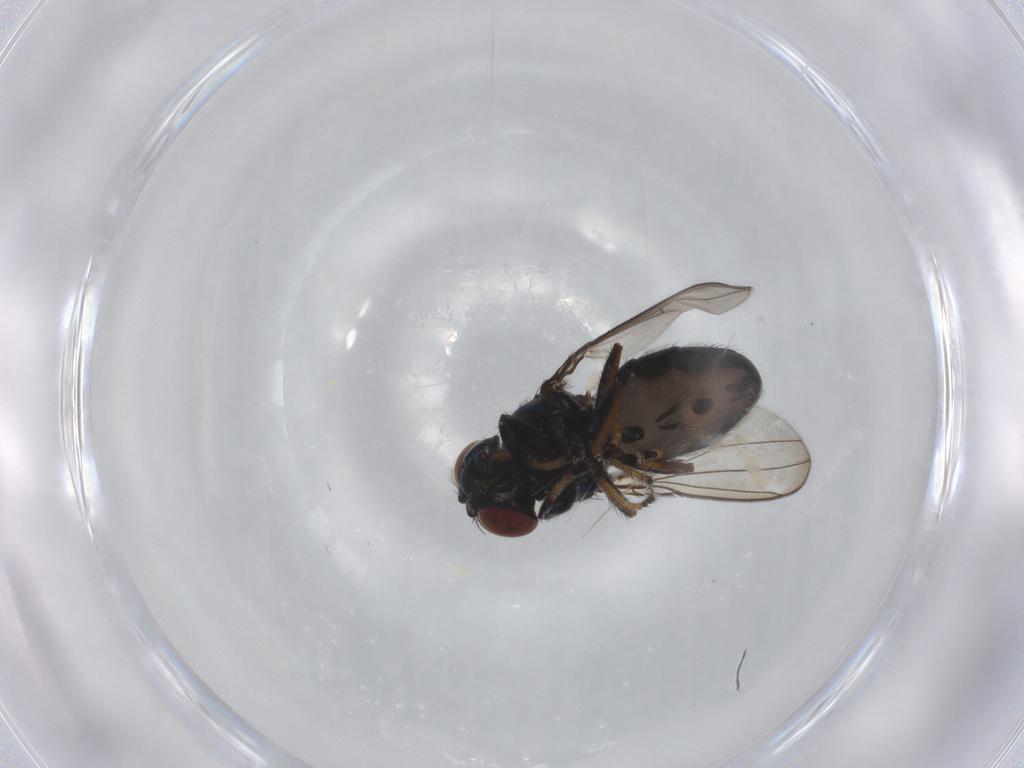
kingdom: Animalia
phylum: Arthropoda
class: Insecta
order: Diptera
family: Ephydridae
